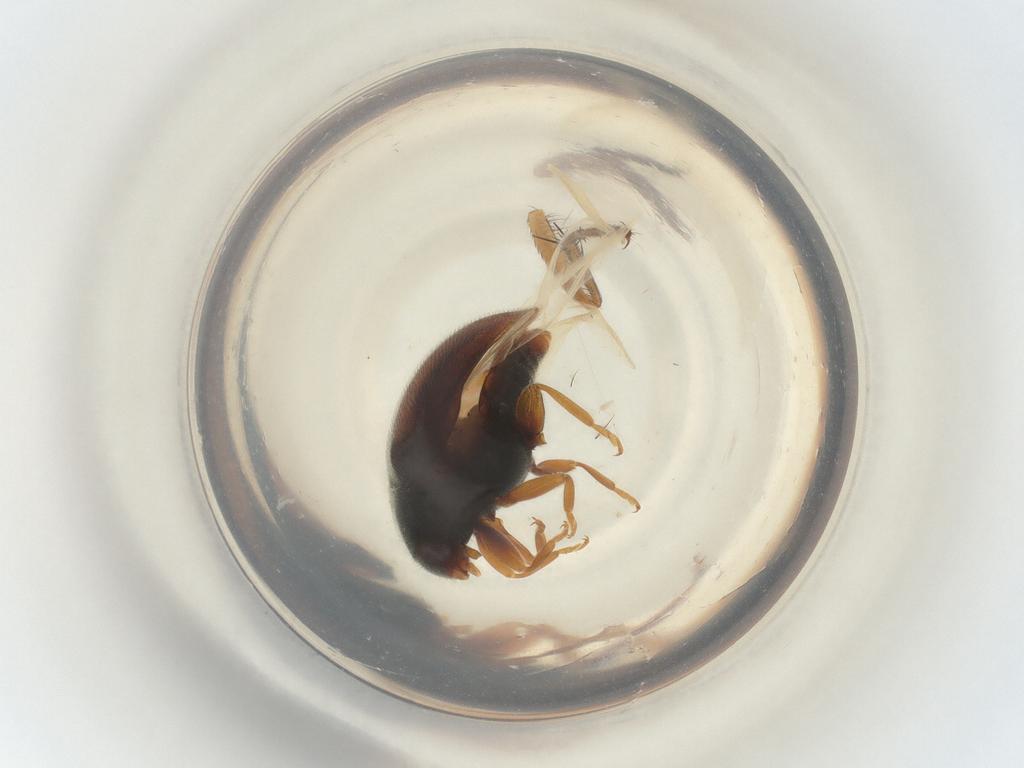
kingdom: Animalia
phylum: Arthropoda
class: Insecta
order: Coleoptera
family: Coccinellidae
